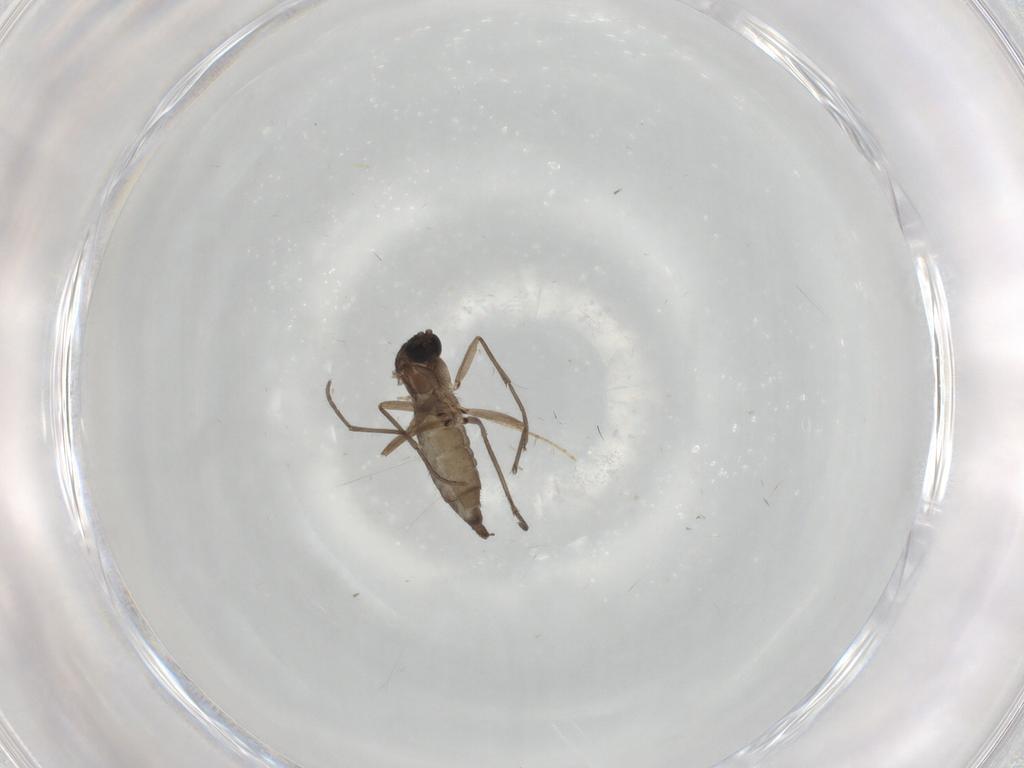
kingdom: Animalia
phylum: Arthropoda
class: Insecta
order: Diptera
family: Sciaridae
